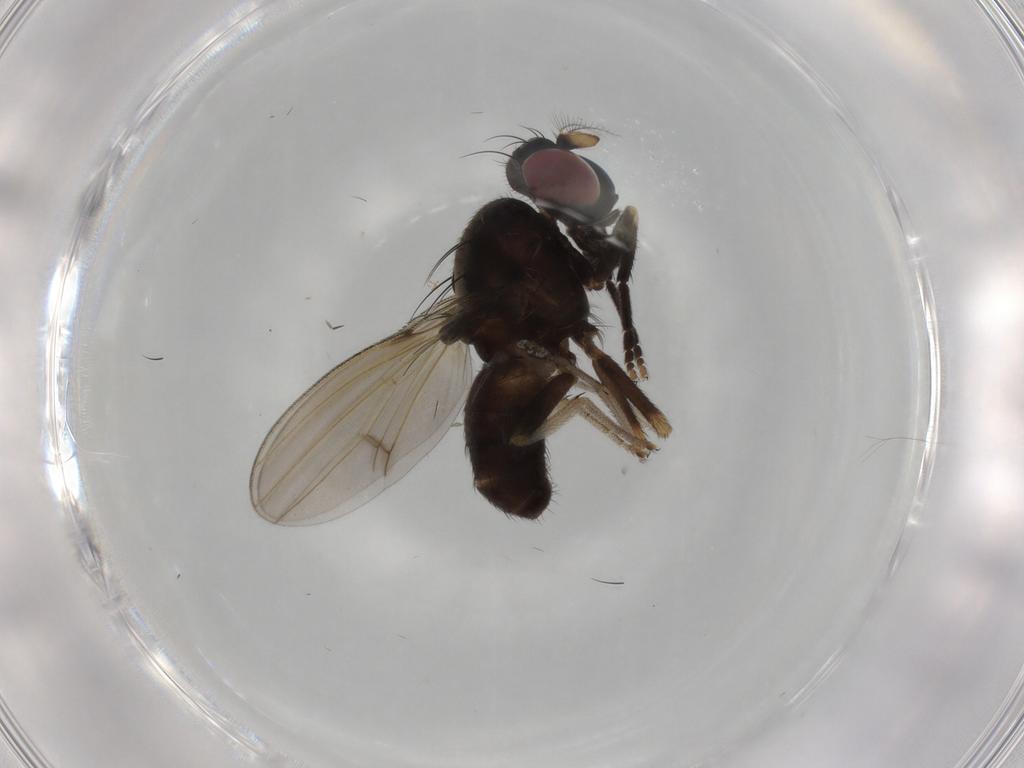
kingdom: Animalia
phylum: Arthropoda
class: Insecta
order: Diptera
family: Cecidomyiidae
